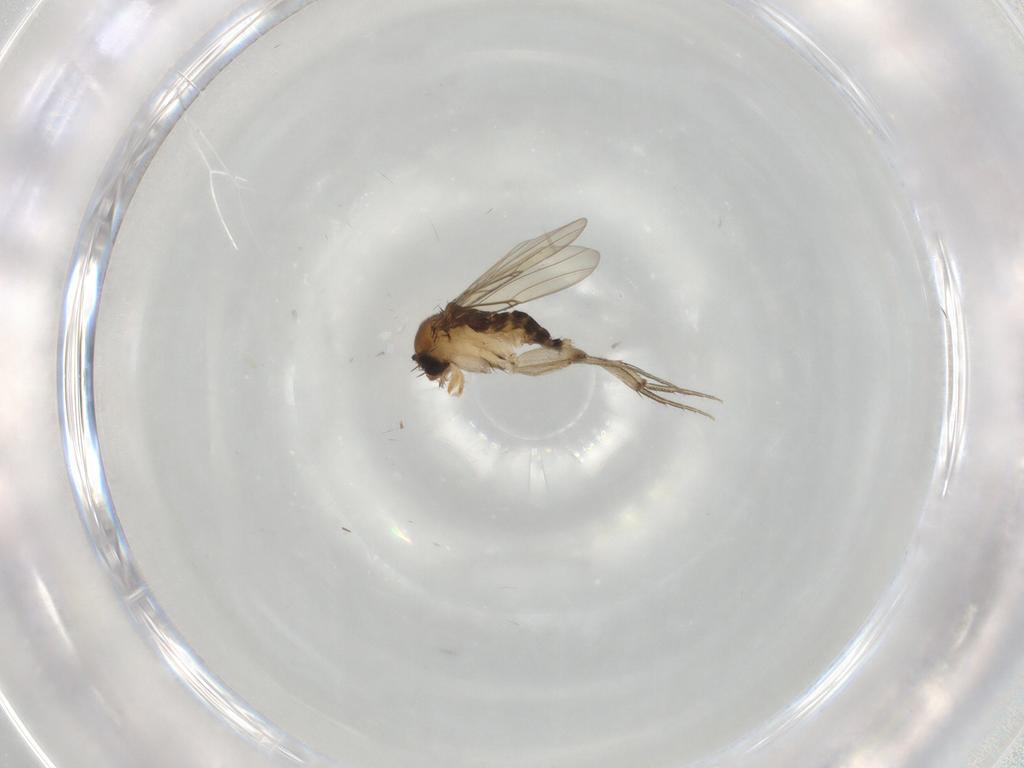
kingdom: Animalia
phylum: Arthropoda
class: Insecta
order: Diptera
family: Phoridae
